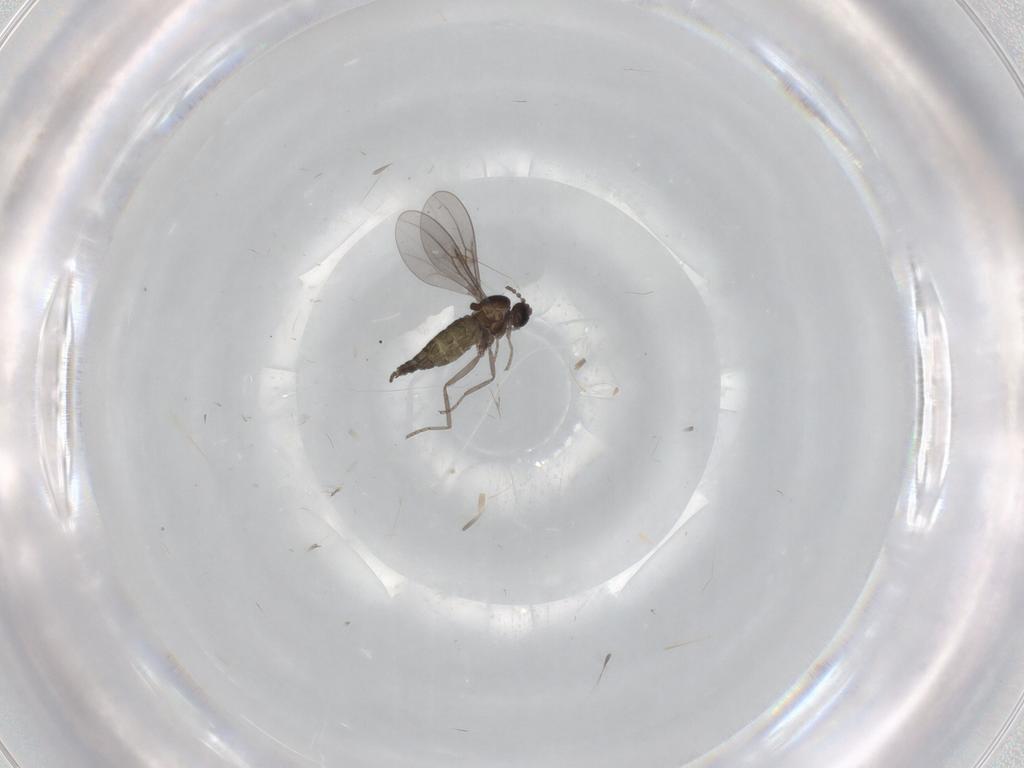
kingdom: Animalia
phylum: Arthropoda
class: Insecta
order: Diptera
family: Cecidomyiidae
